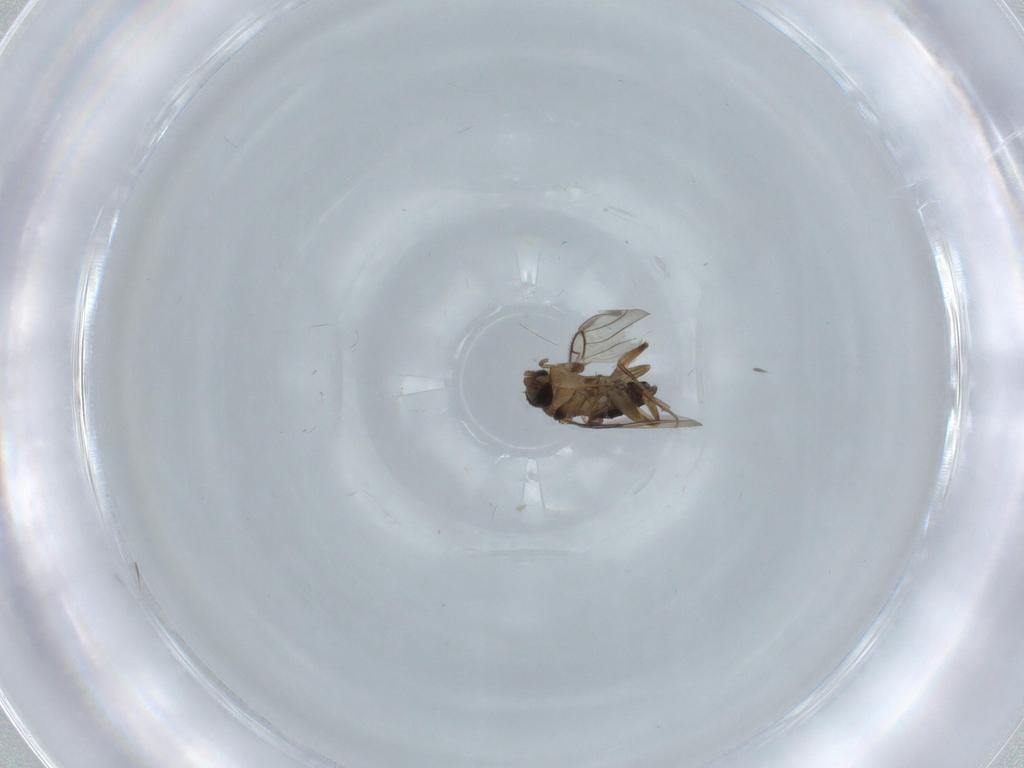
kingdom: Animalia
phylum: Arthropoda
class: Insecta
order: Diptera
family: Phoridae
